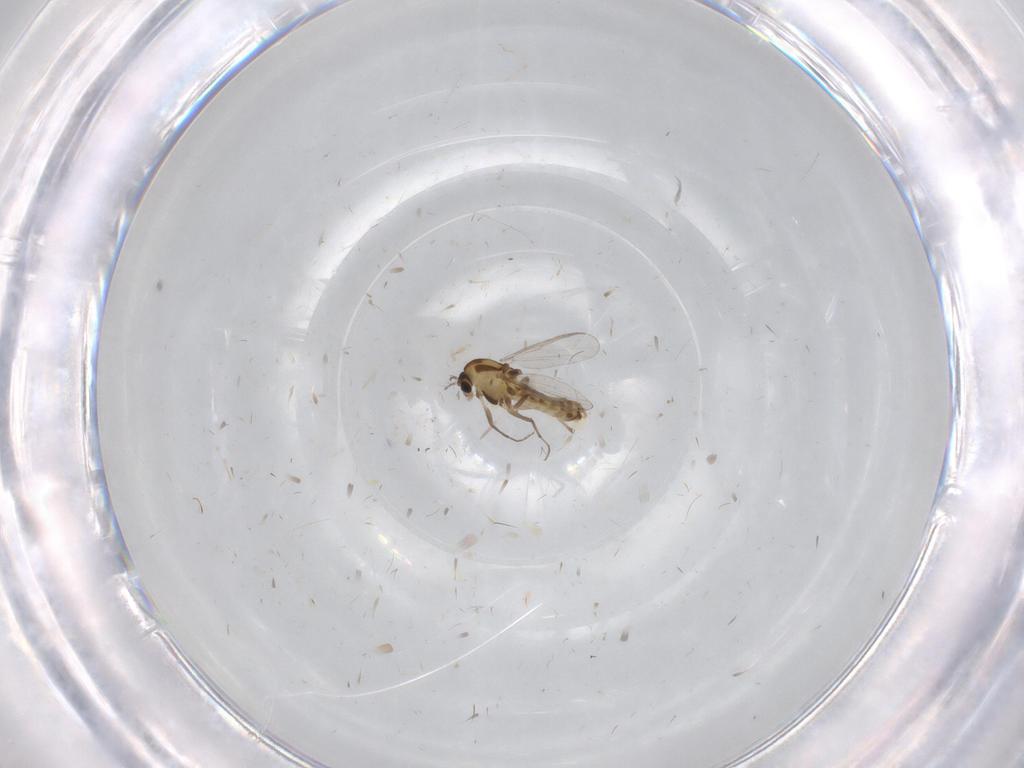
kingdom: Animalia
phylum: Arthropoda
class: Insecta
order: Diptera
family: Chironomidae
